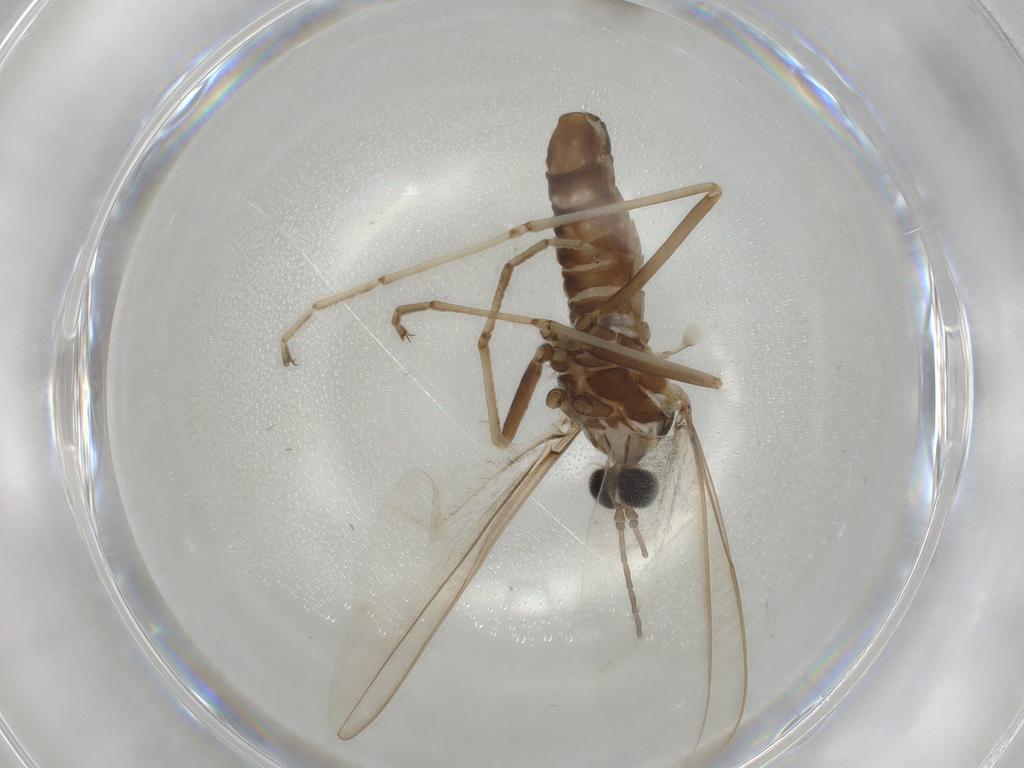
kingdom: Animalia
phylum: Arthropoda
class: Insecta
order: Diptera
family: Cecidomyiidae
